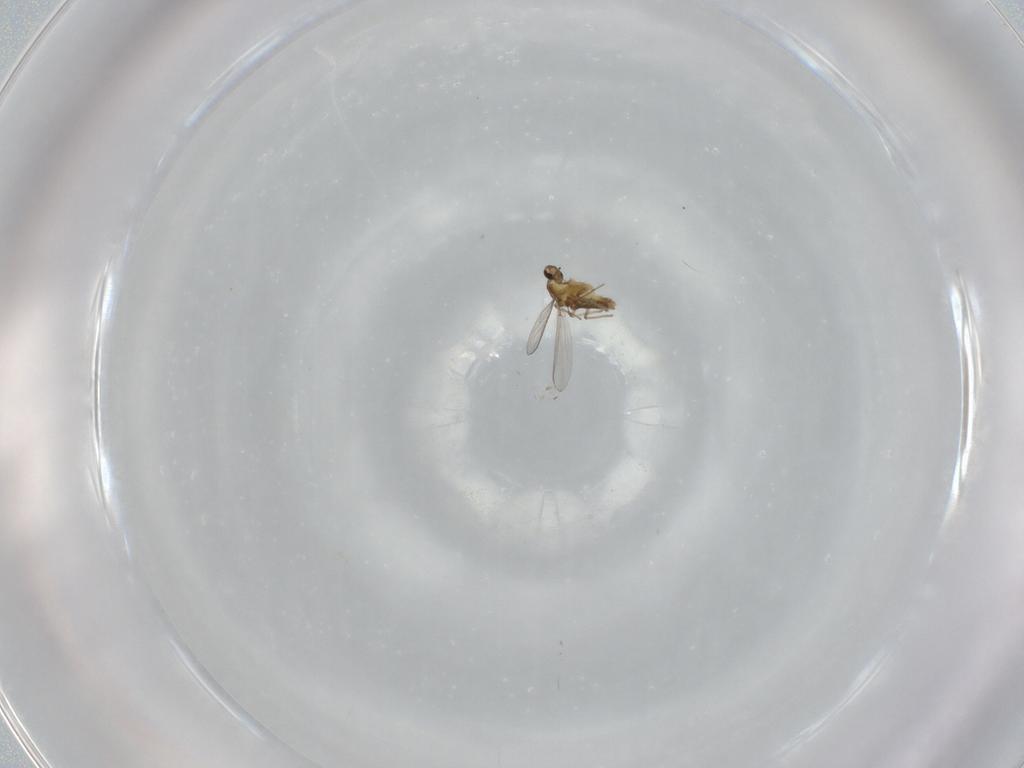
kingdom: Animalia
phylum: Arthropoda
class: Insecta
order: Diptera
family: Chironomidae
